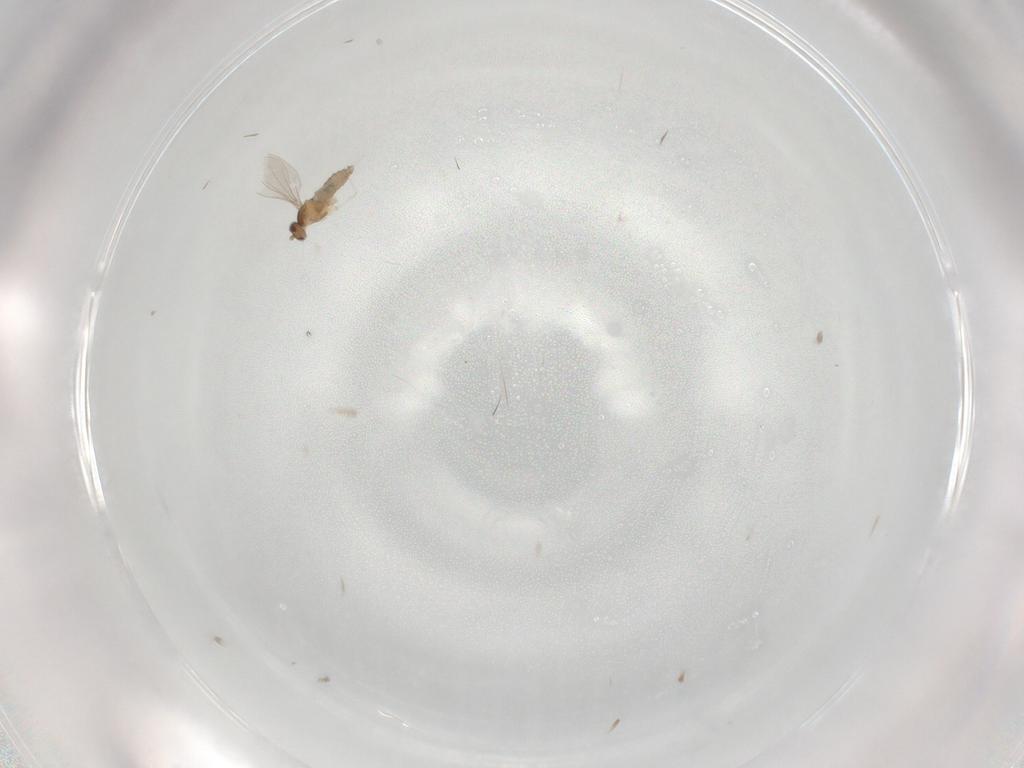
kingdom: Animalia
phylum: Arthropoda
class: Insecta
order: Diptera
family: Cecidomyiidae
